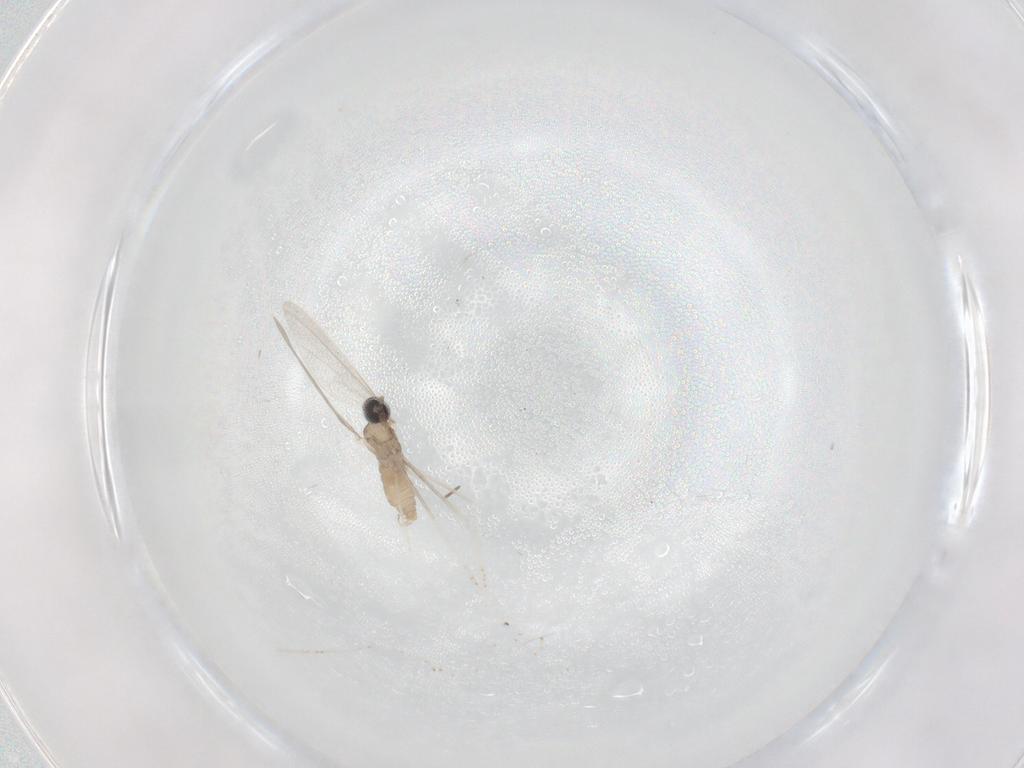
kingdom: Animalia
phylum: Arthropoda
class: Insecta
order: Diptera
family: Cecidomyiidae
